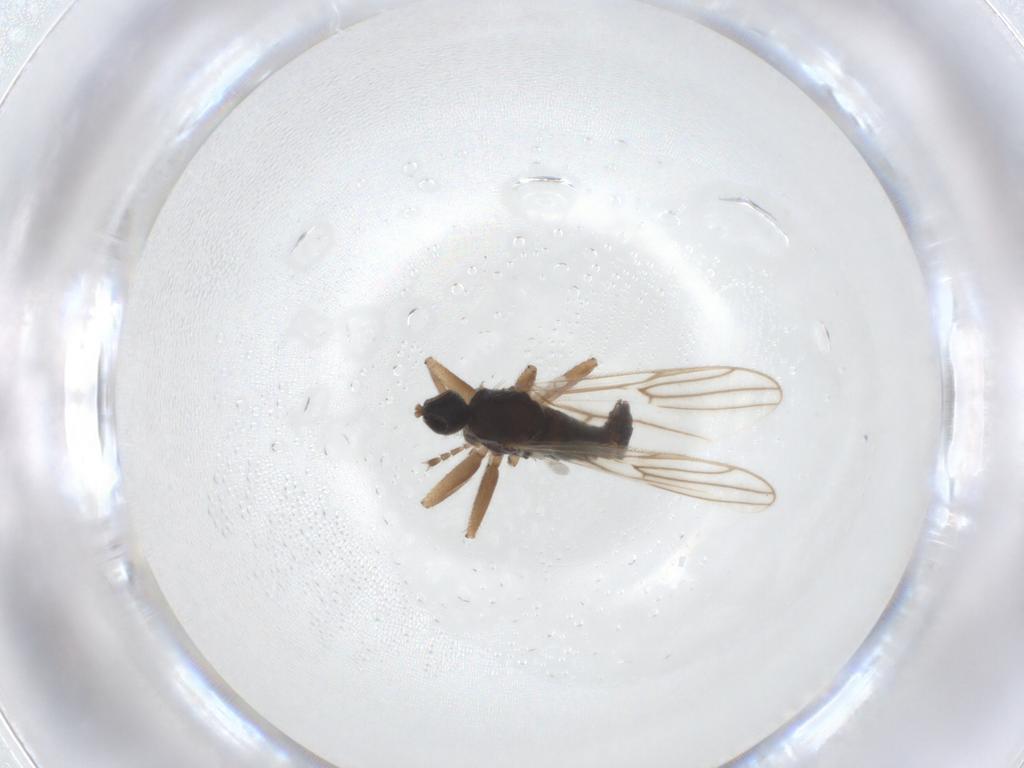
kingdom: Animalia
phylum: Arthropoda
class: Insecta
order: Diptera
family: Hybotidae
